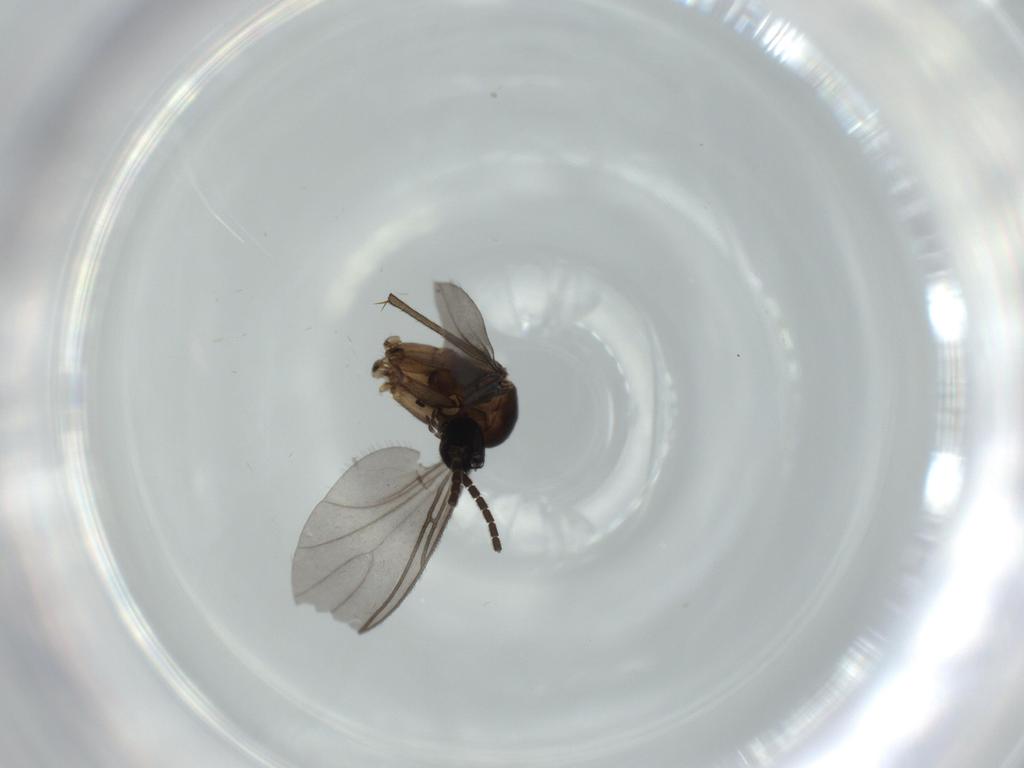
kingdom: Animalia
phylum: Arthropoda
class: Insecta
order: Diptera
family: Sciaridae
